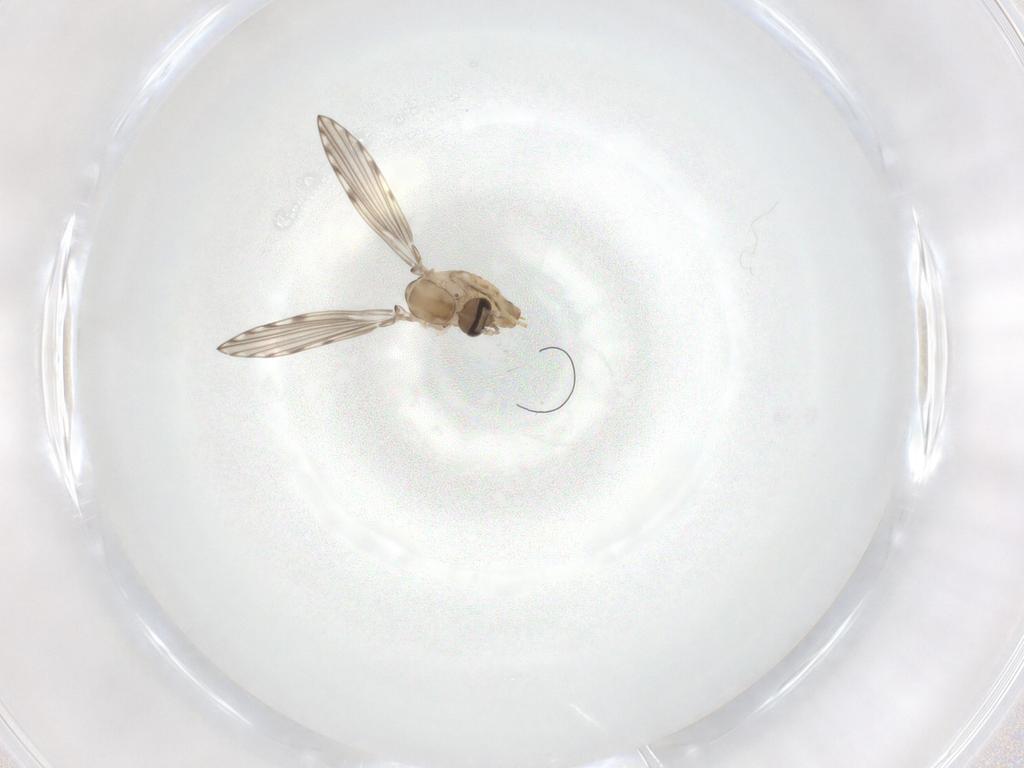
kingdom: Animalia
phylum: Arthropoda
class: Insecta
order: Diptera
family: Psychodidae
